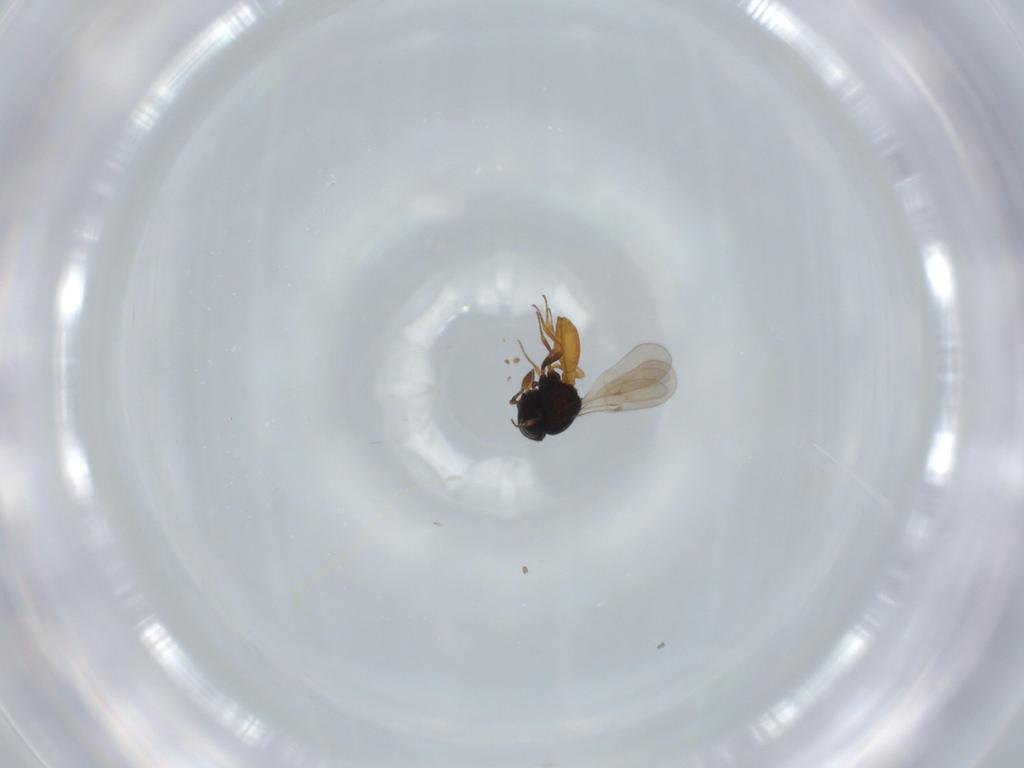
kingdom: Animalia
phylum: Arthropoda
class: Insecta
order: Hymenoptera
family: Scelionidae
